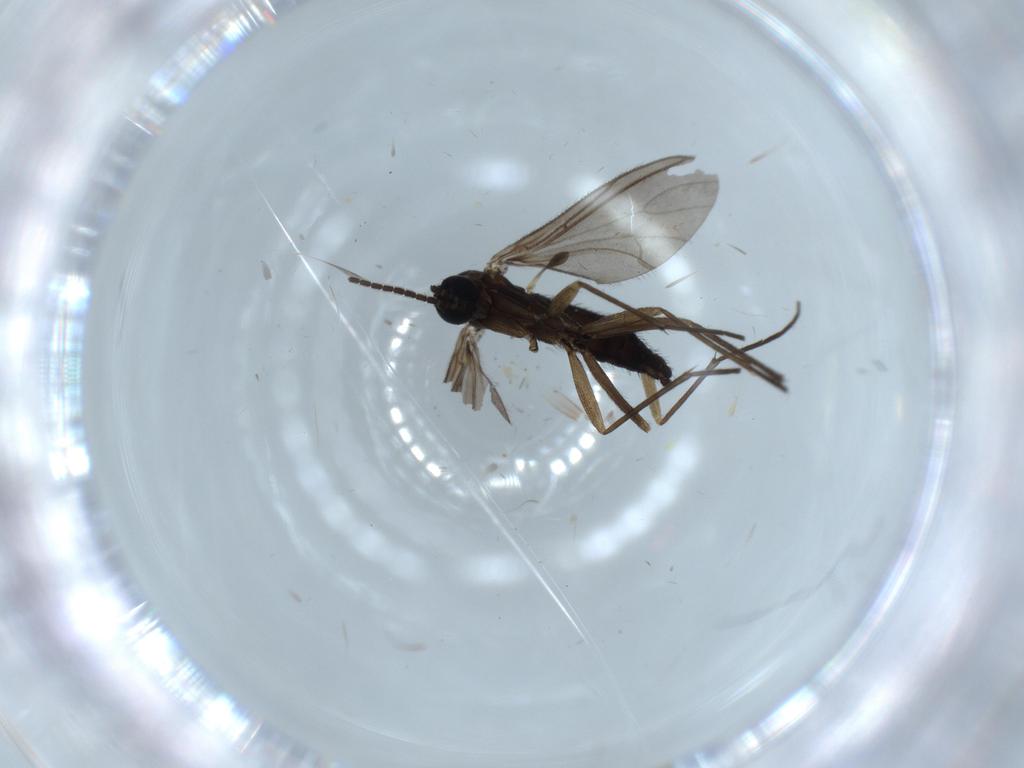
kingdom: Animalia
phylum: Arthropoda
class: Insecta
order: Diptera
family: Sciaridae
